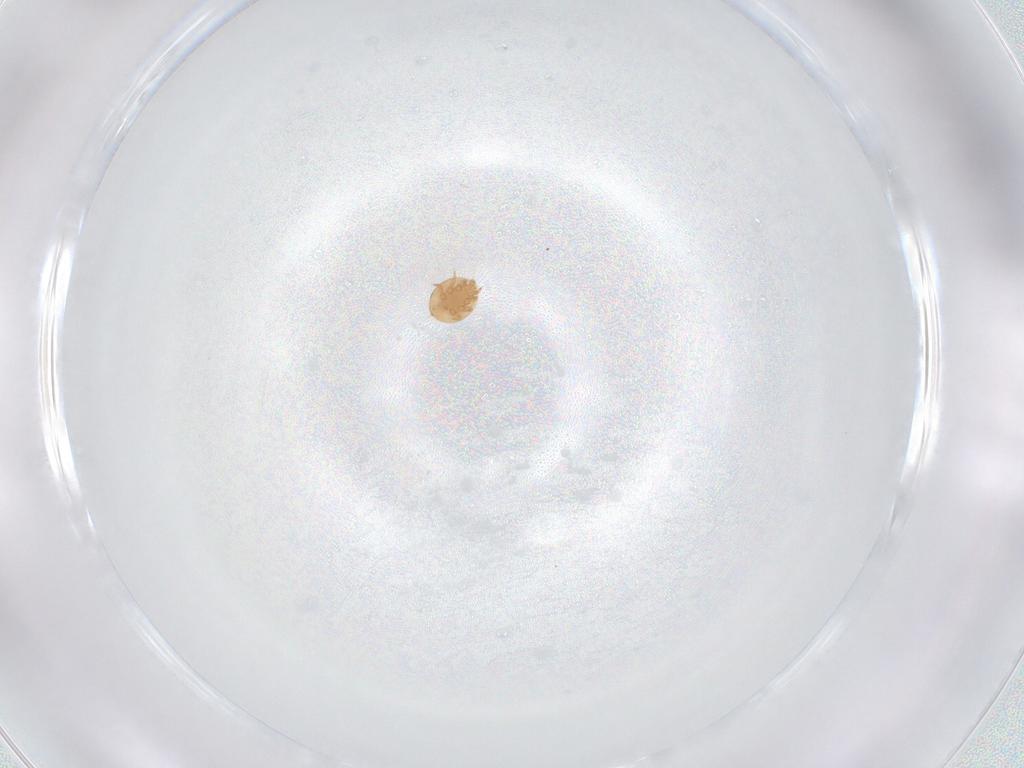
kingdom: Animalia
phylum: Arthropoda
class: Arachnida
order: Mesostigmata
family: Trematuridae
